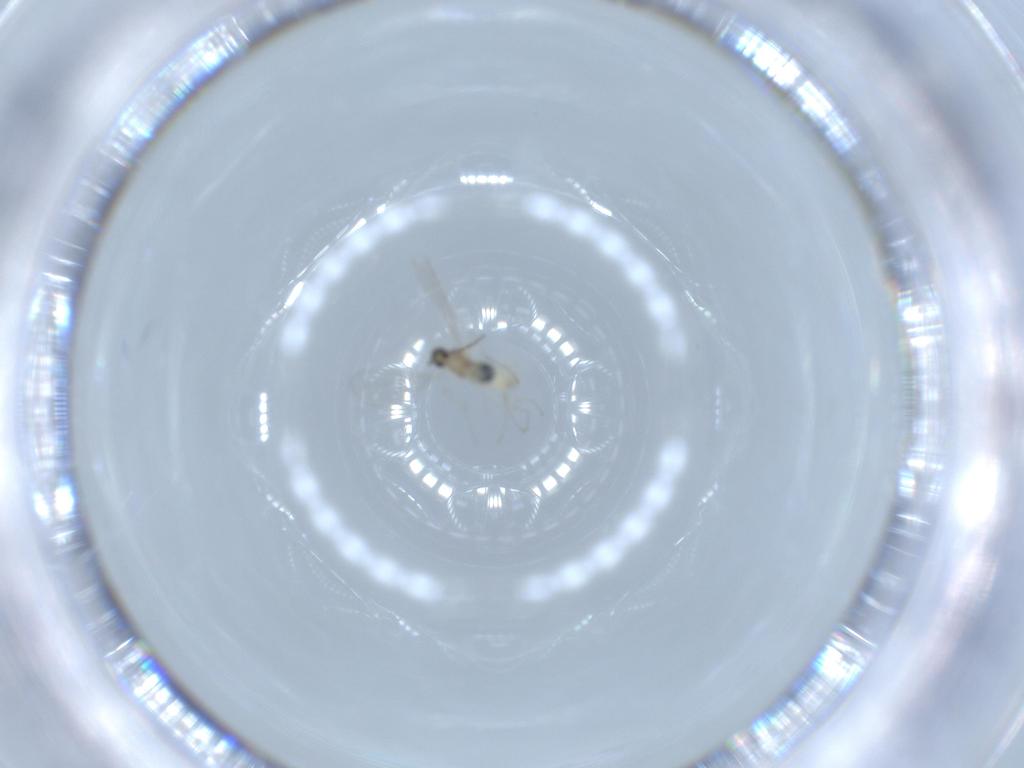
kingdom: Animalia
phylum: Arthropoda
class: Insecta
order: Diptera
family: Cecidomyiidae
